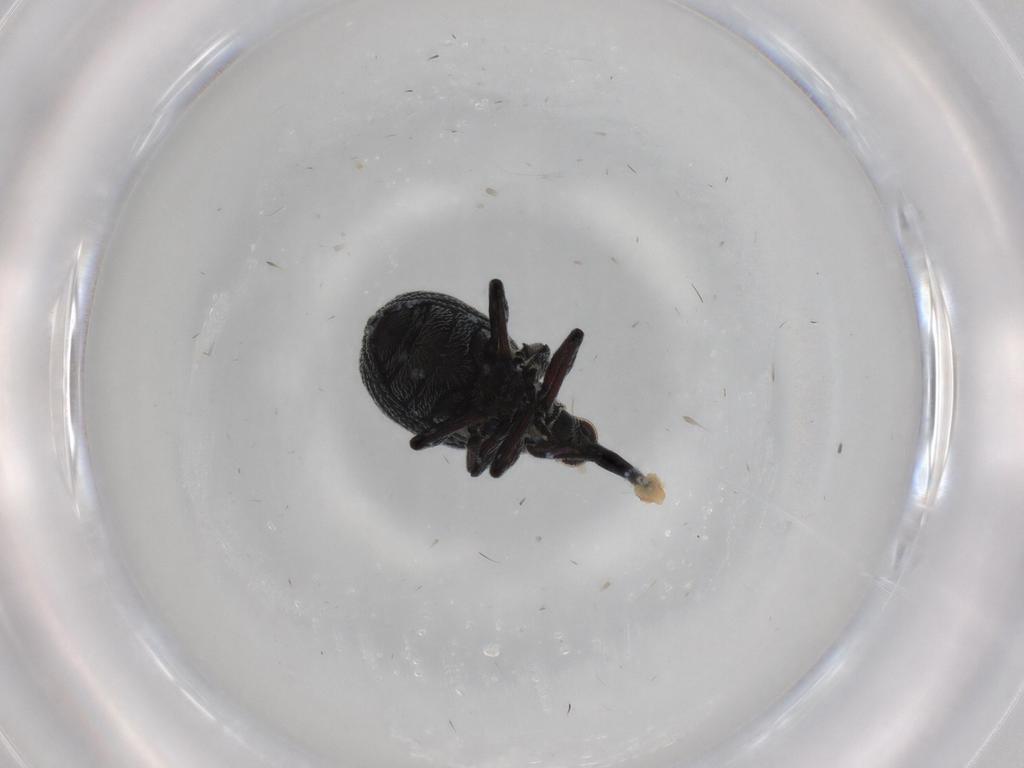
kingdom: Animalia
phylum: Arthropoda
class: Insecta
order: Coleoptera
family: Brentidae
